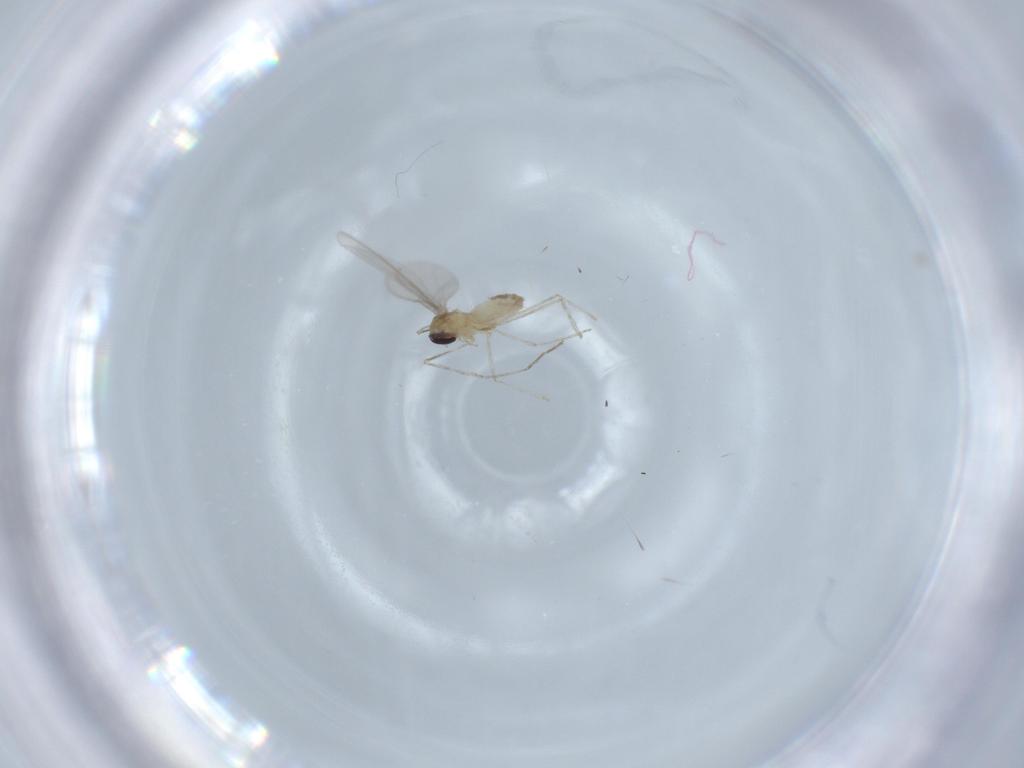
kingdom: Animalia
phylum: Arthropoda
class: Insecta
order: Diptera
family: Cecidomyiidae
